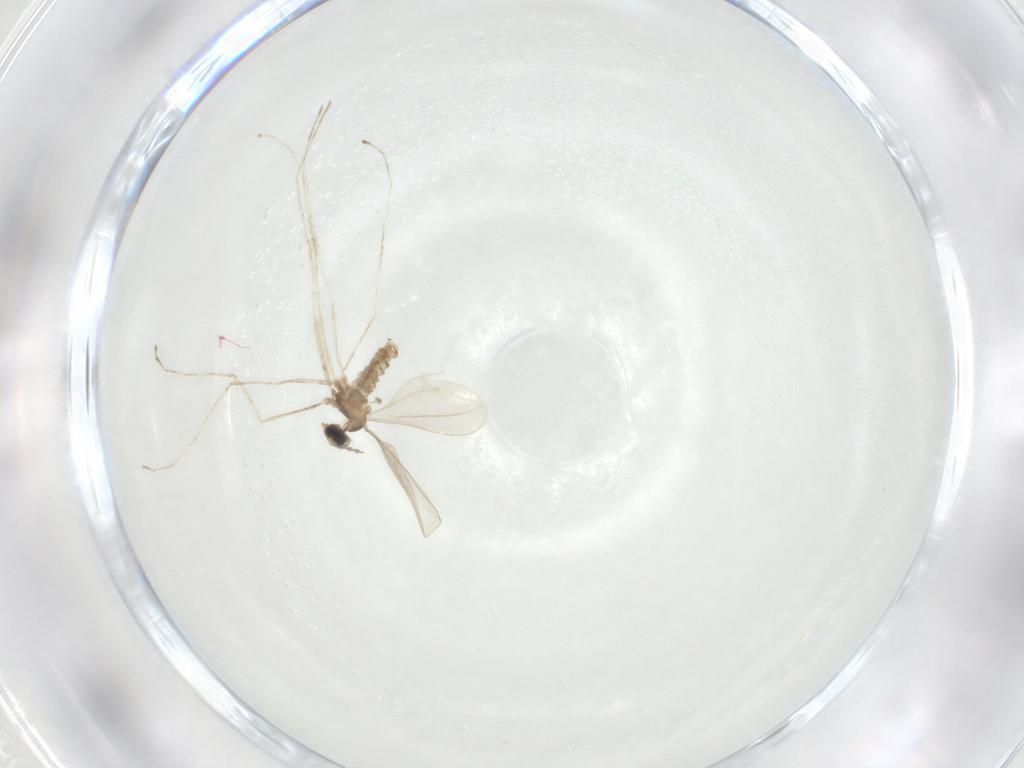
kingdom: Animalia
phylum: Arthropoda
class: Insecta
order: Diptera
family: Cecidomyiidae
